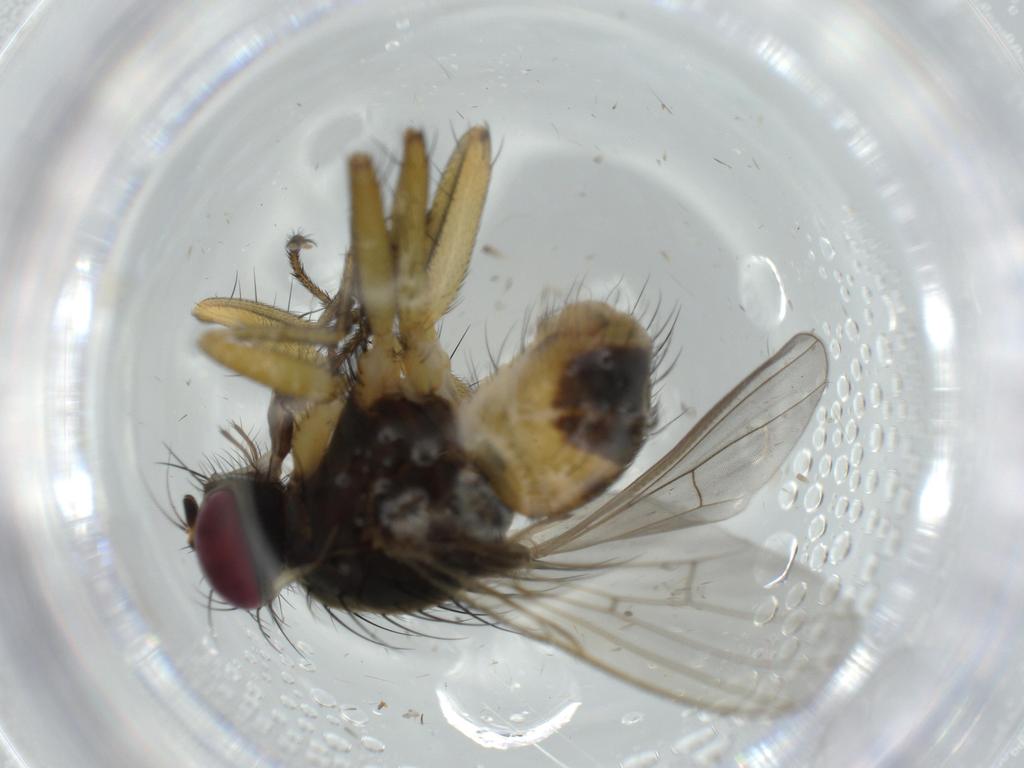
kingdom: Animalia
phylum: Arthropoda
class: Insecta
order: Diptera
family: Muscidae
